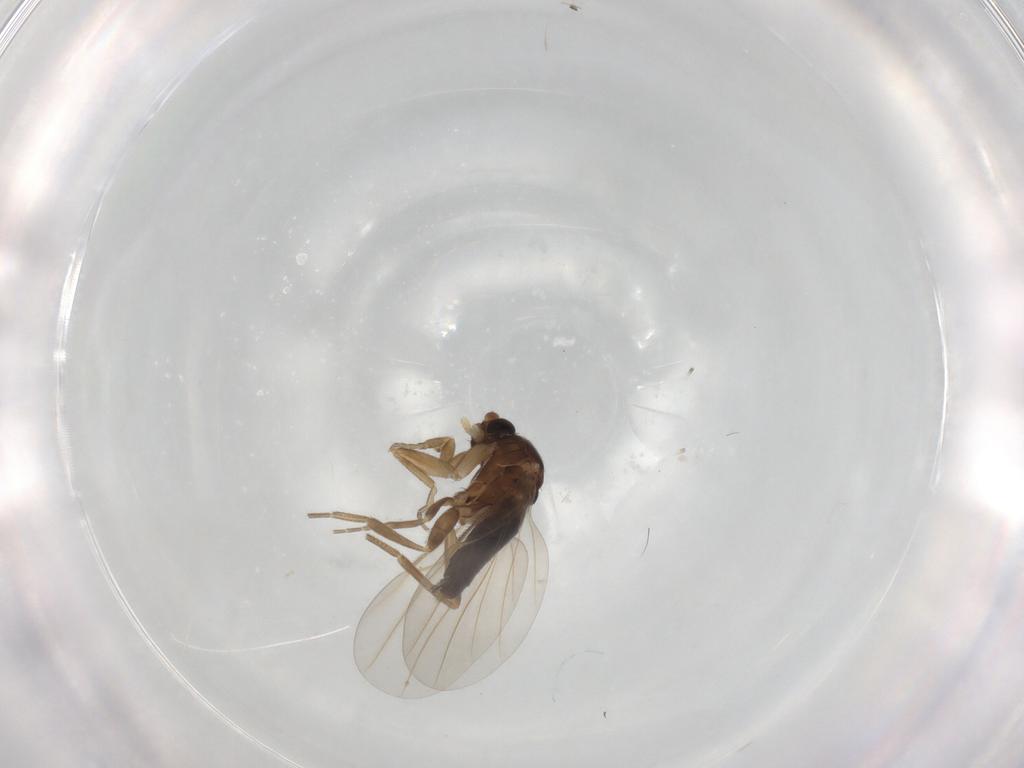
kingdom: Animalia
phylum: Arthropoda
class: Insecta
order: Diptera
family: Phoridae
